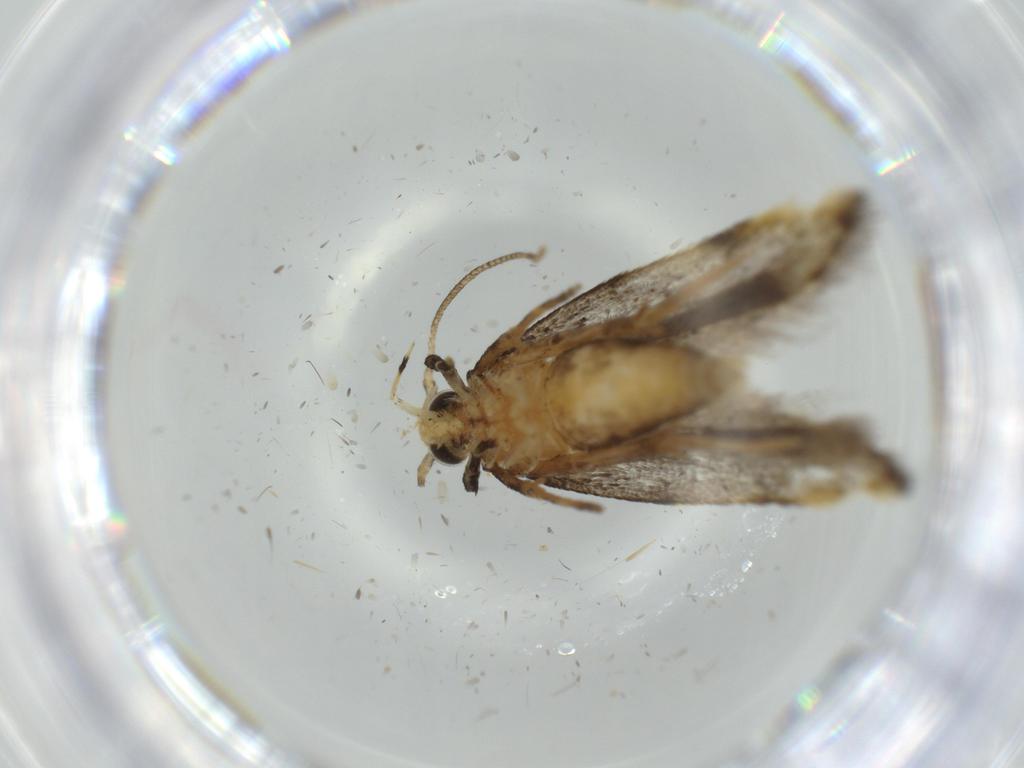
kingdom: Animalia
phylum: Arthropoda
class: Insecta
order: Lepidoptera
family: Autostichidae
